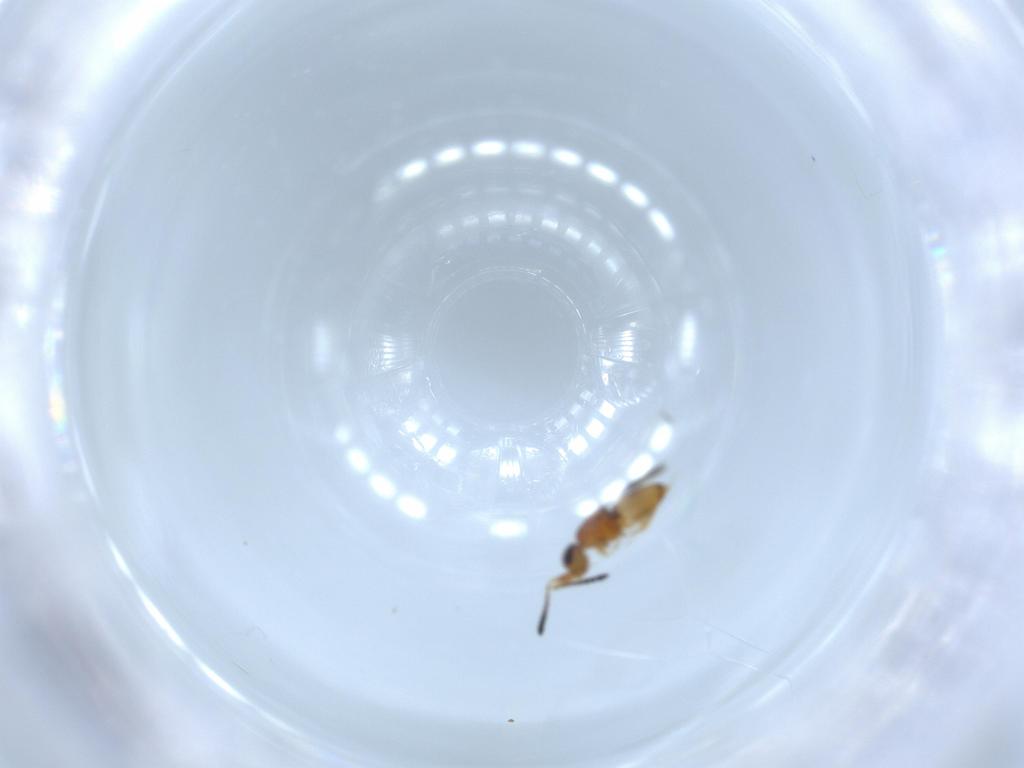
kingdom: Animalia
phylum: Arthropoda
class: Insecta
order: Hymenoptera
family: Ceraphronidae
